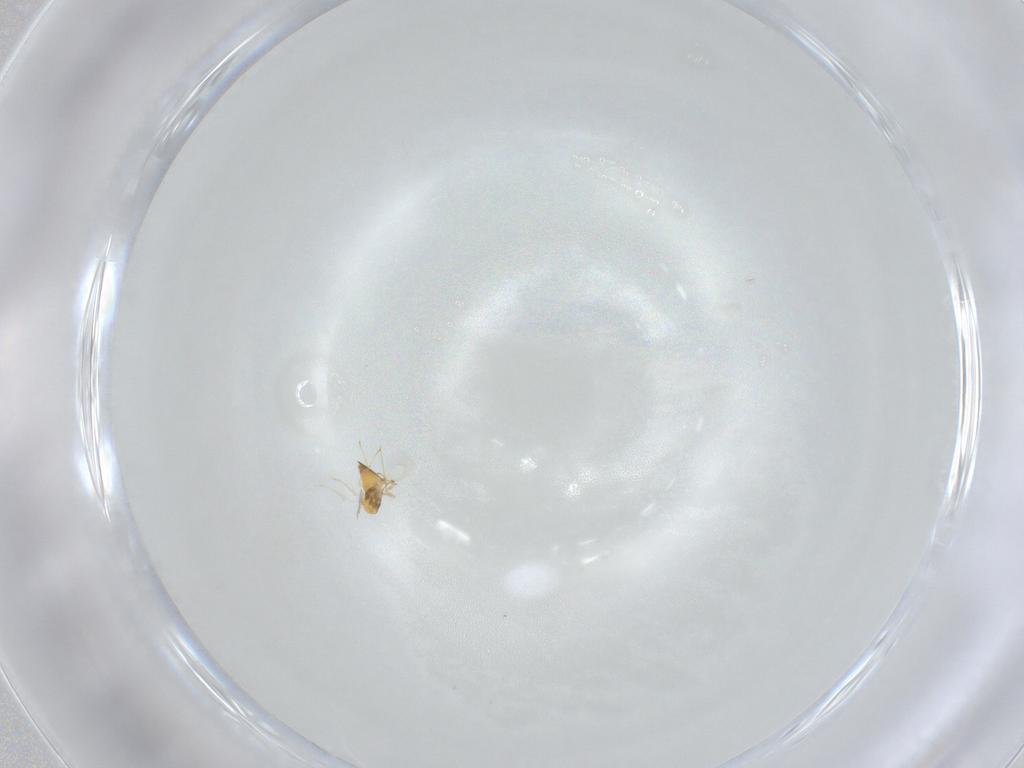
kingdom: Animalia
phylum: Arthropoda
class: Insecta
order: Hymenoptera
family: Trichogrammatidae
